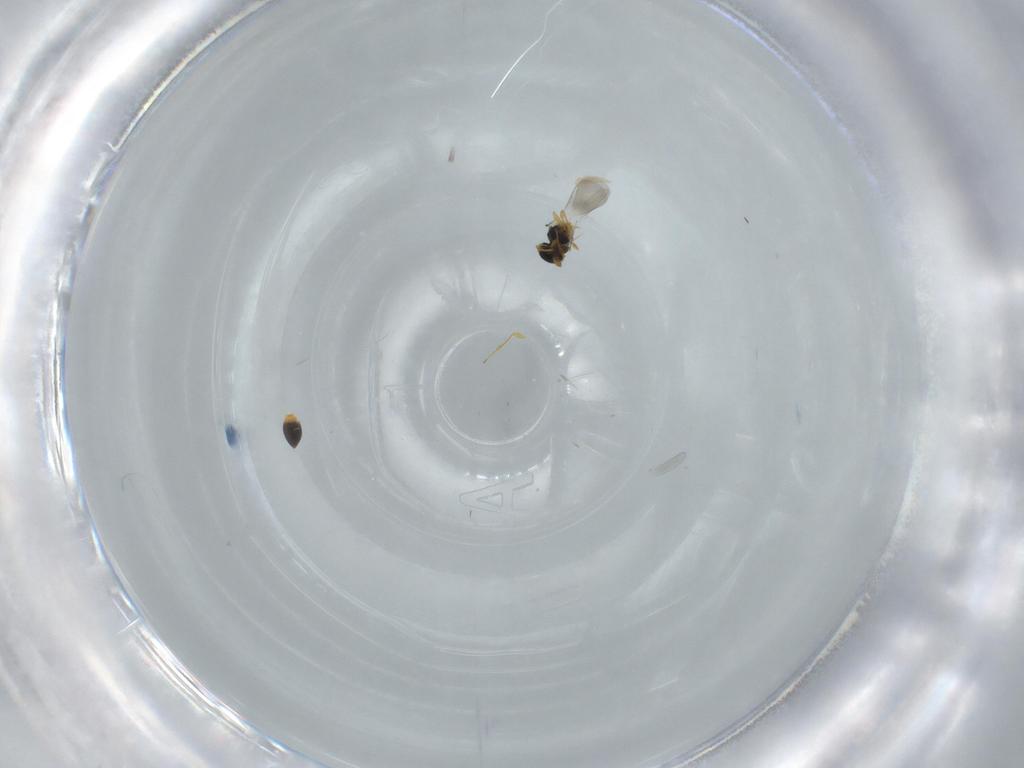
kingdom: Animalia
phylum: Arthropoda
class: Insecta
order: Hymenoptera
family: Platygastridae
